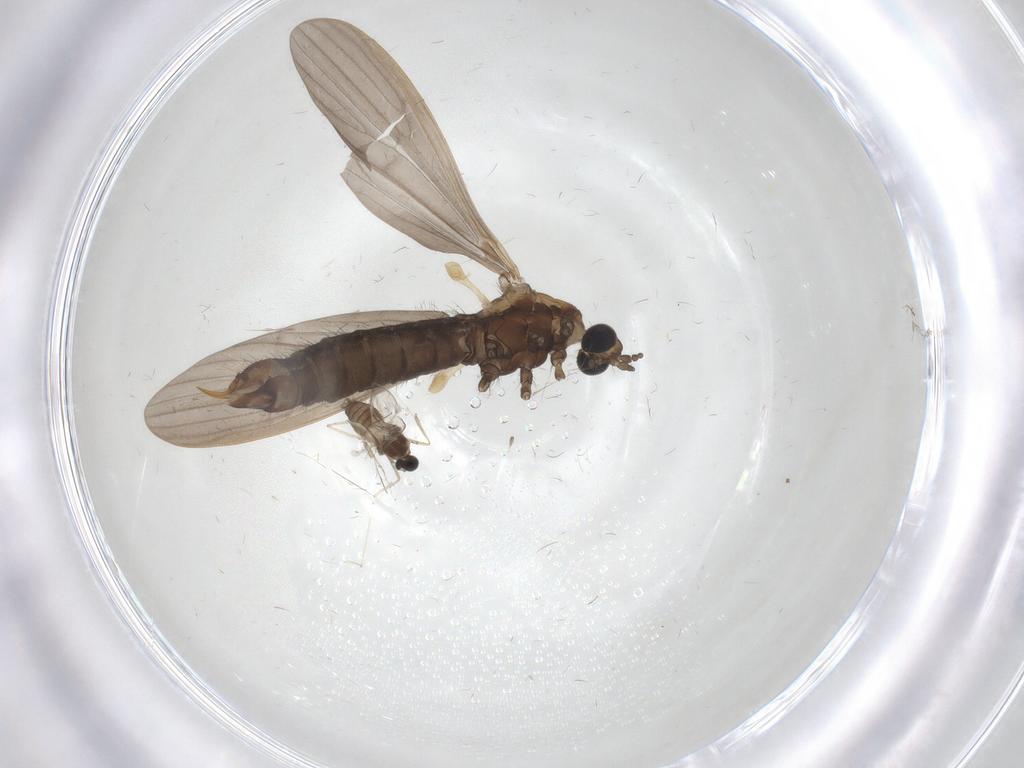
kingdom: Animalia
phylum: Arthropoda
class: Insecta
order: Diptera
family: Limoniidae
